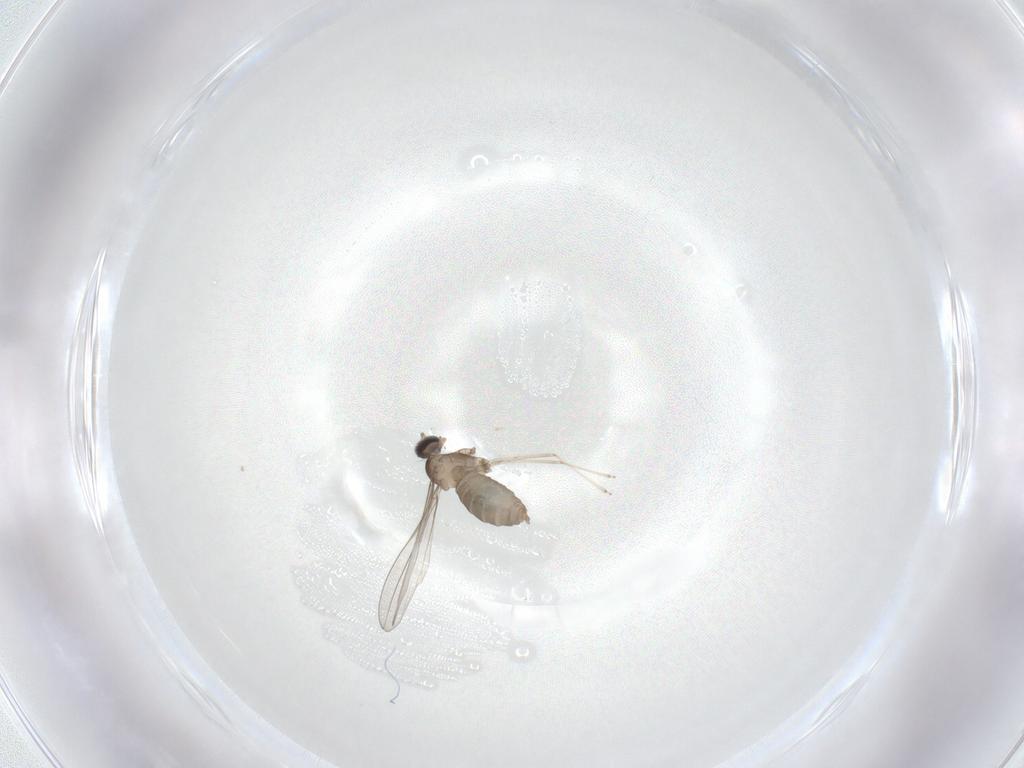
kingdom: Animalia
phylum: Arthropoda
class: Insecta
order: Diptera
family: Cecidomyiidae
